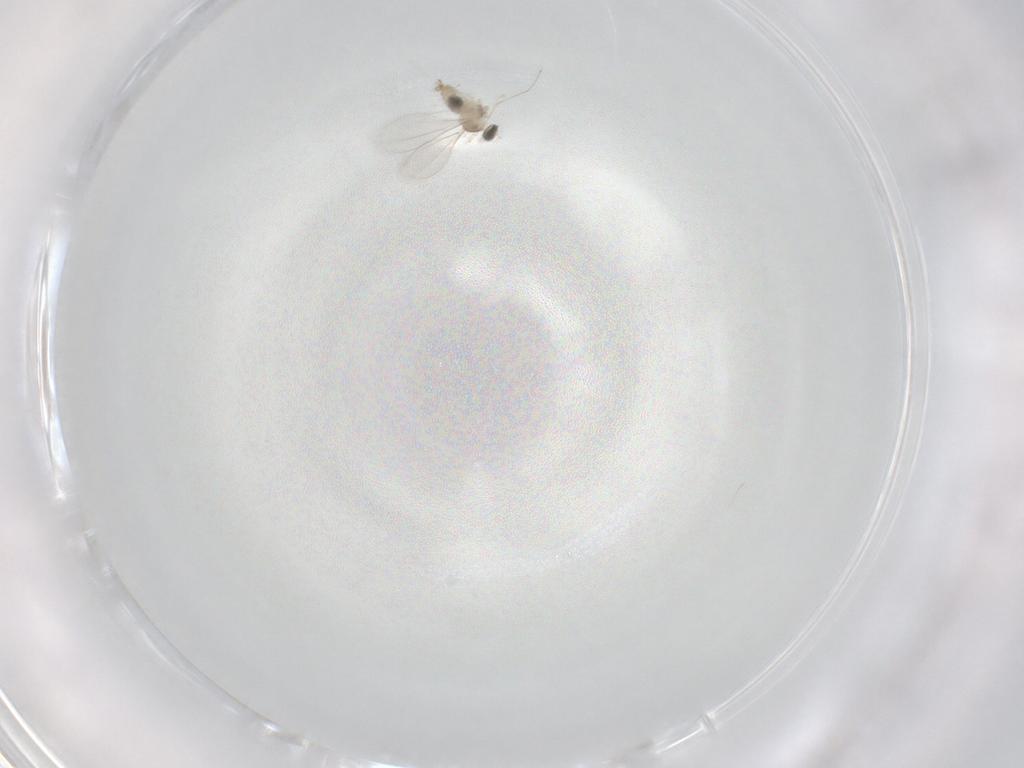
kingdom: Animalia
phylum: Arthropoda
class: Insecta
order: Diptera
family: Cecidomyiidae
